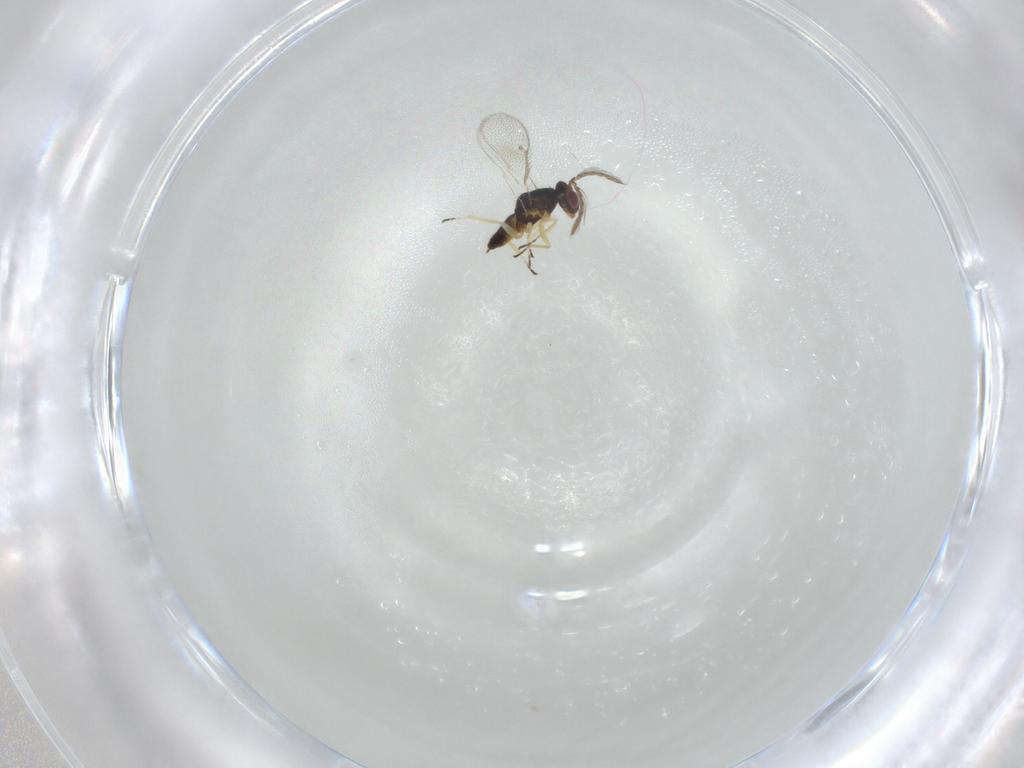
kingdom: Animalia
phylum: Arthropoda
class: Insecta
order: Hymenoptera
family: Eulophidae
